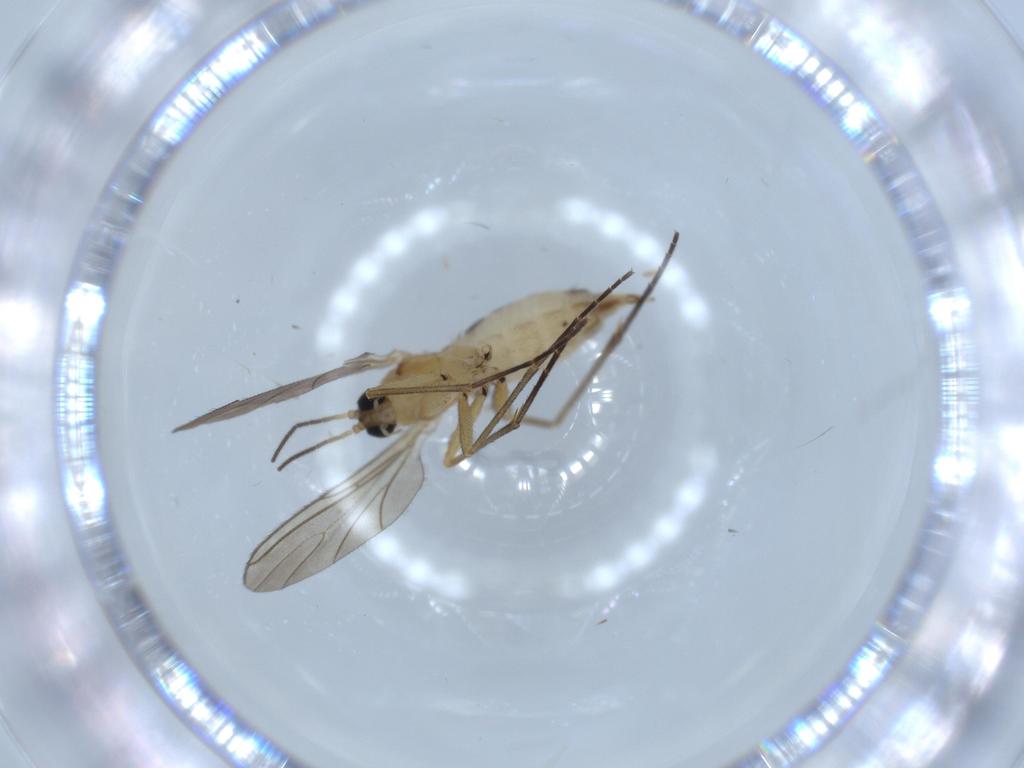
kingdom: Animalia
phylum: Arthropoda
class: Insecta
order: Diptera
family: Sciaridae
